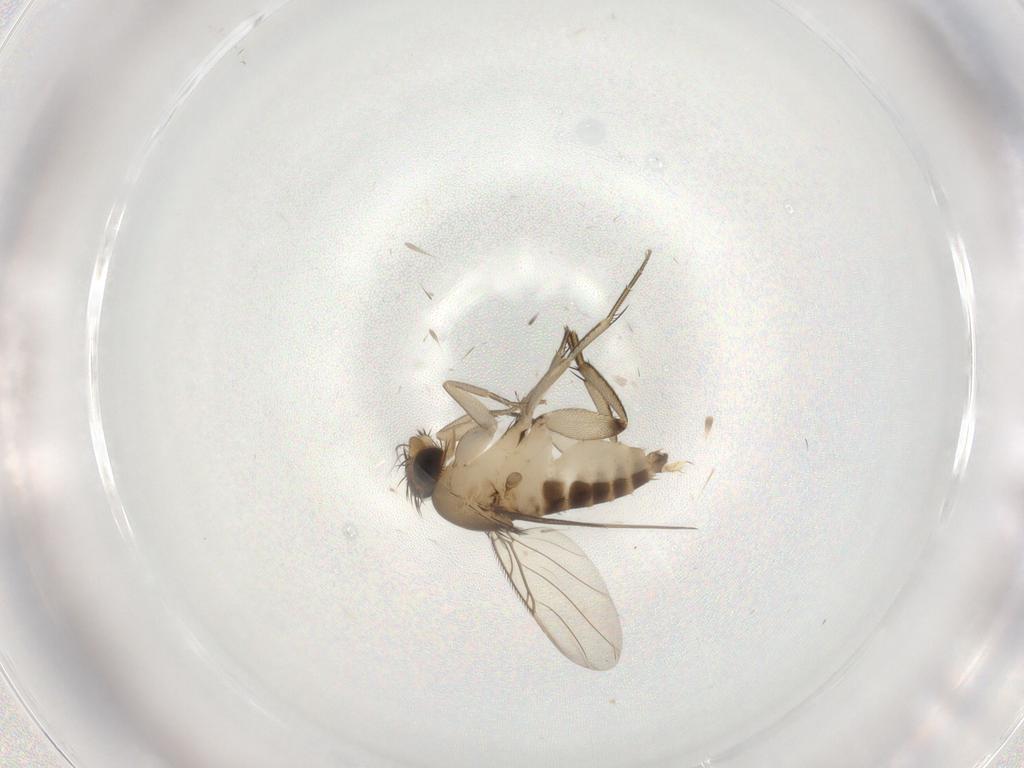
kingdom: Animalia
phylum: Arthropoda
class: Insecta
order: Diptera
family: Phoridae
